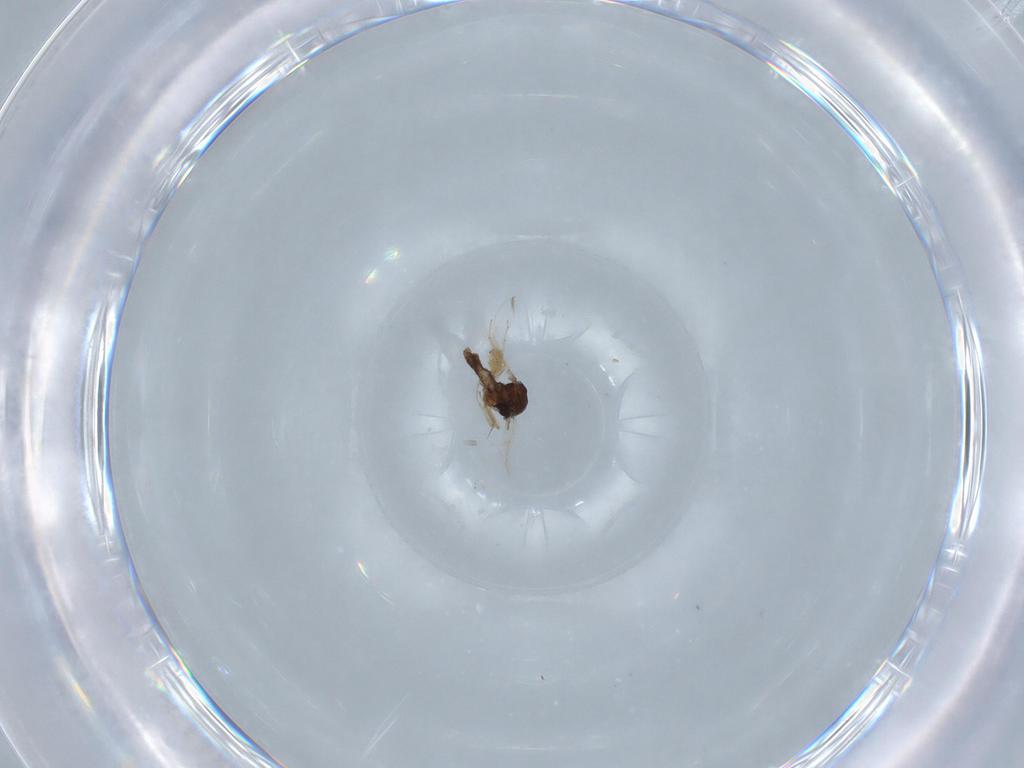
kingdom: Animalia
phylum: Arthropoda
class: Insecta
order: Diptera
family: Ceratopogonidae
